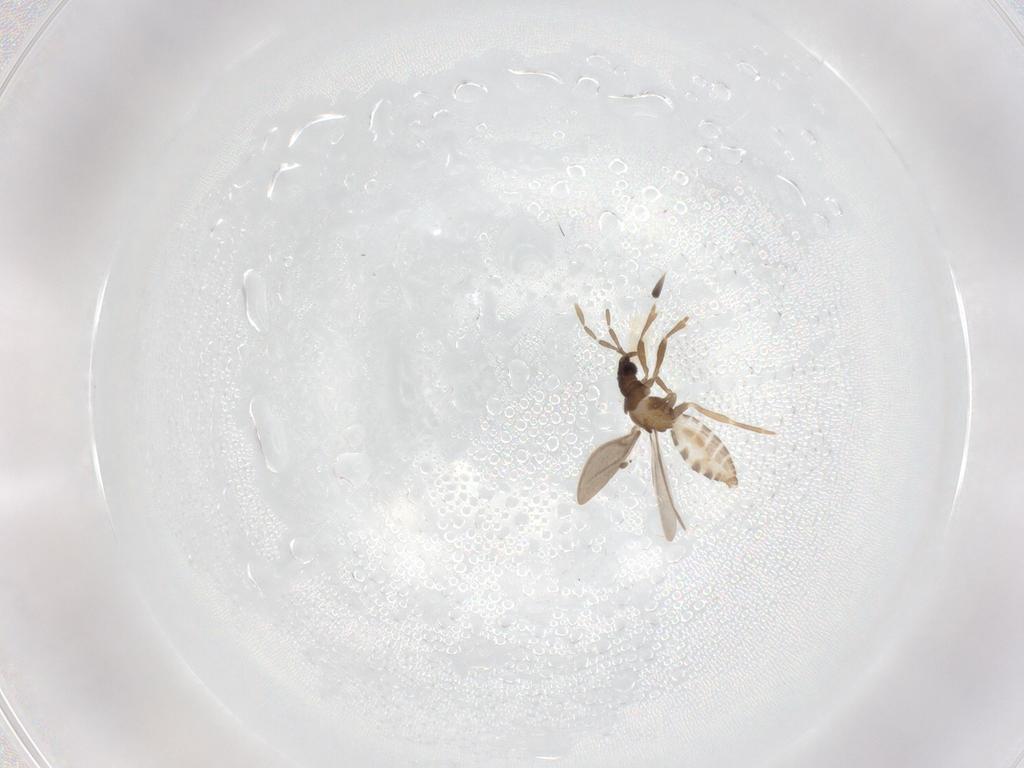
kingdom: Animalia
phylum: Arthropoda
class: Insecta
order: Hemiptera
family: Enicocephalidae
